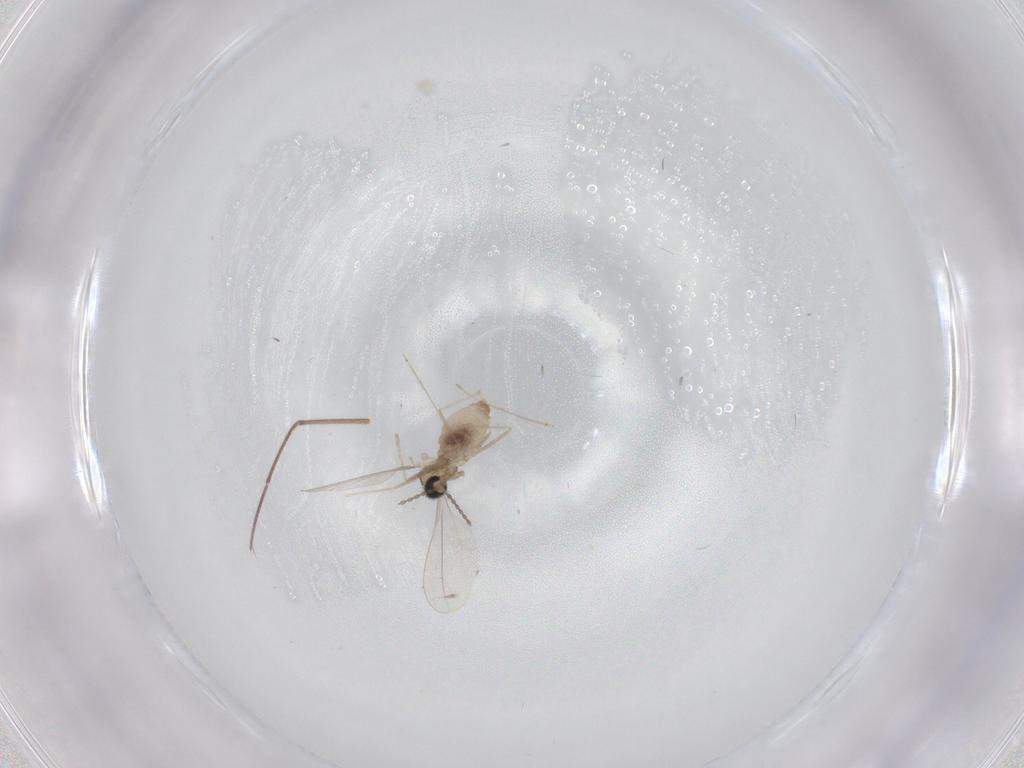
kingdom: Animalia
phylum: Arthropoda
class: Insecta
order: Diptera
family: Cecidomyiidae
